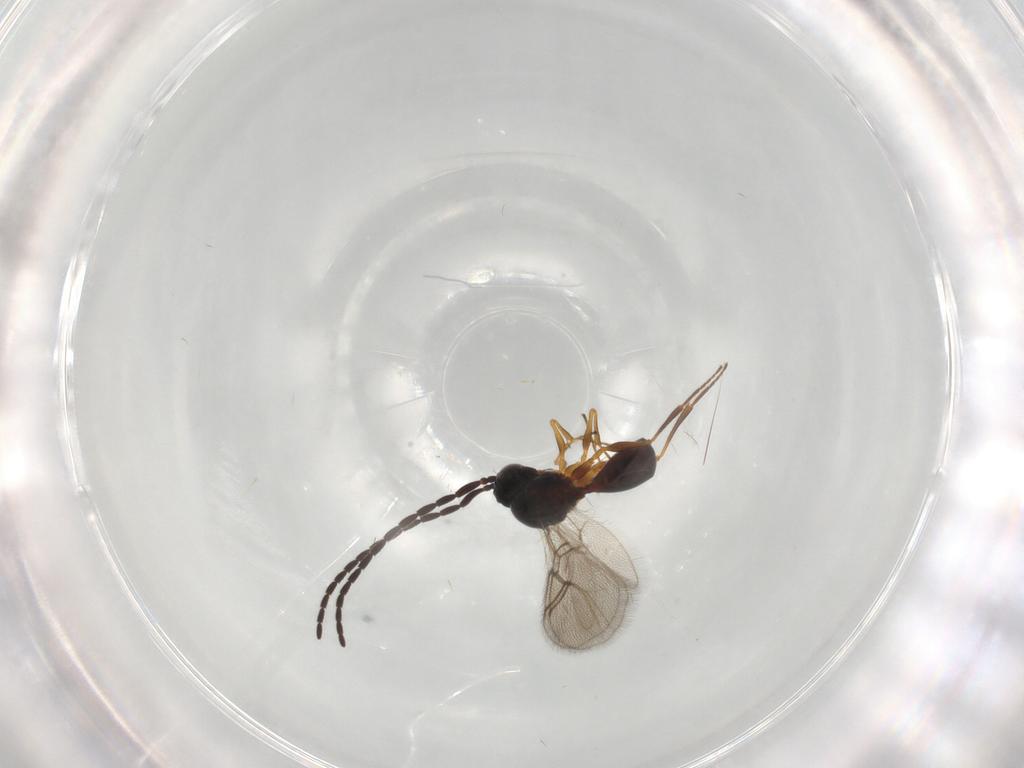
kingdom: Animalia
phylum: Arthropoda
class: Insecta
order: Hymenoptera
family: Figitidae
